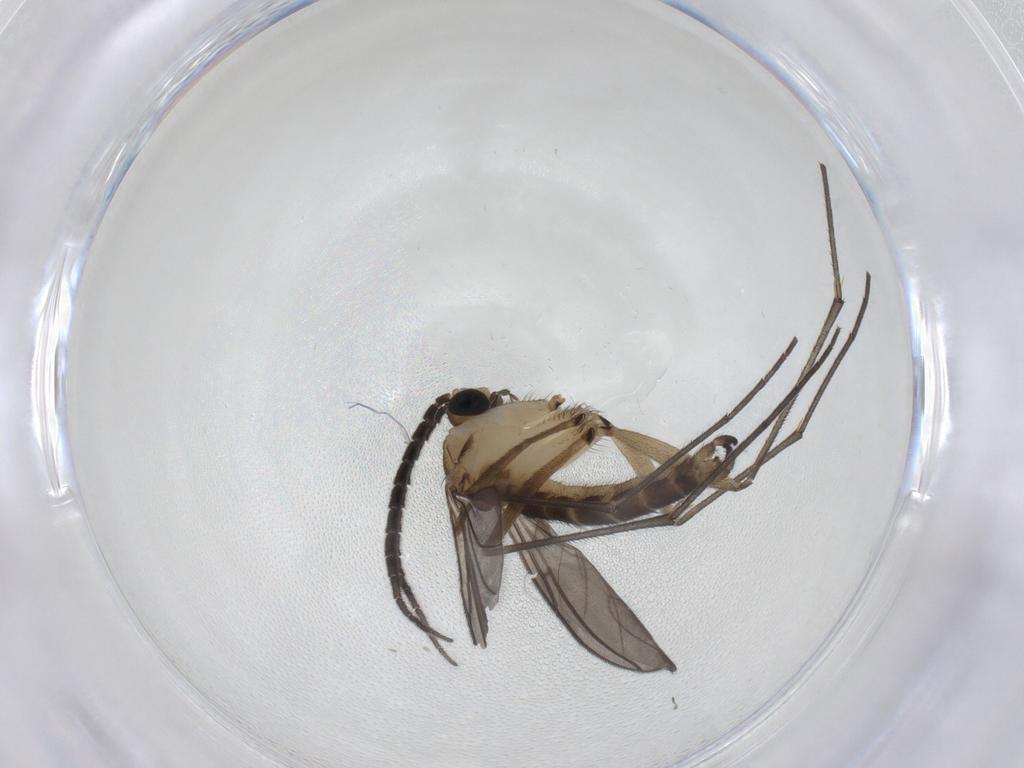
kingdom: Animalia
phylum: Arthropoda
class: Insecta
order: Diptera
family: Sciaridae
